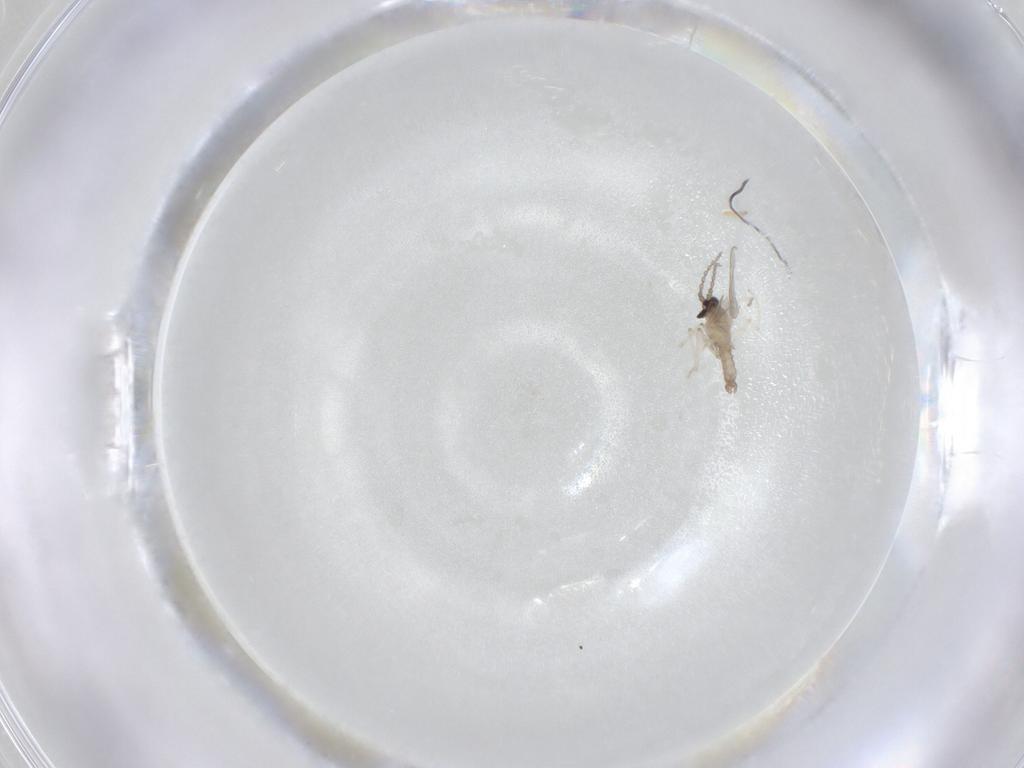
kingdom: Animalia
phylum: Arthropoda
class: Insecta
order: Diptera
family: Cecidomyiidae
